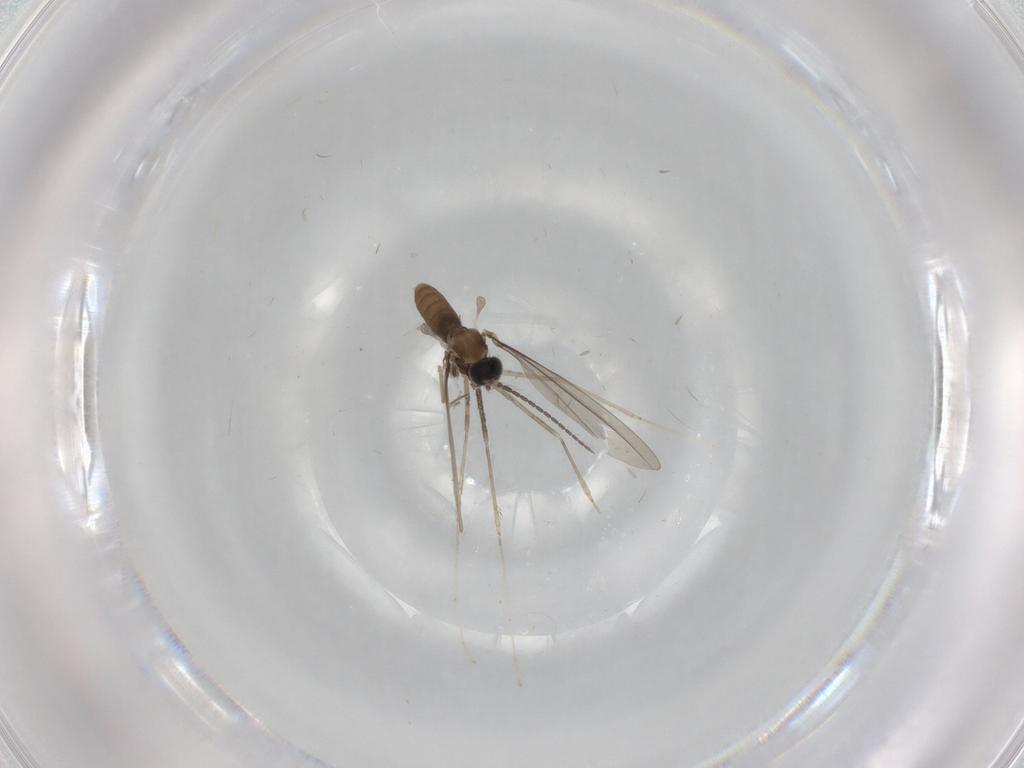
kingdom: Animalia
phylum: Arthropoda
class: Insecta
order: Diptera
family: Cecidomyiidae
